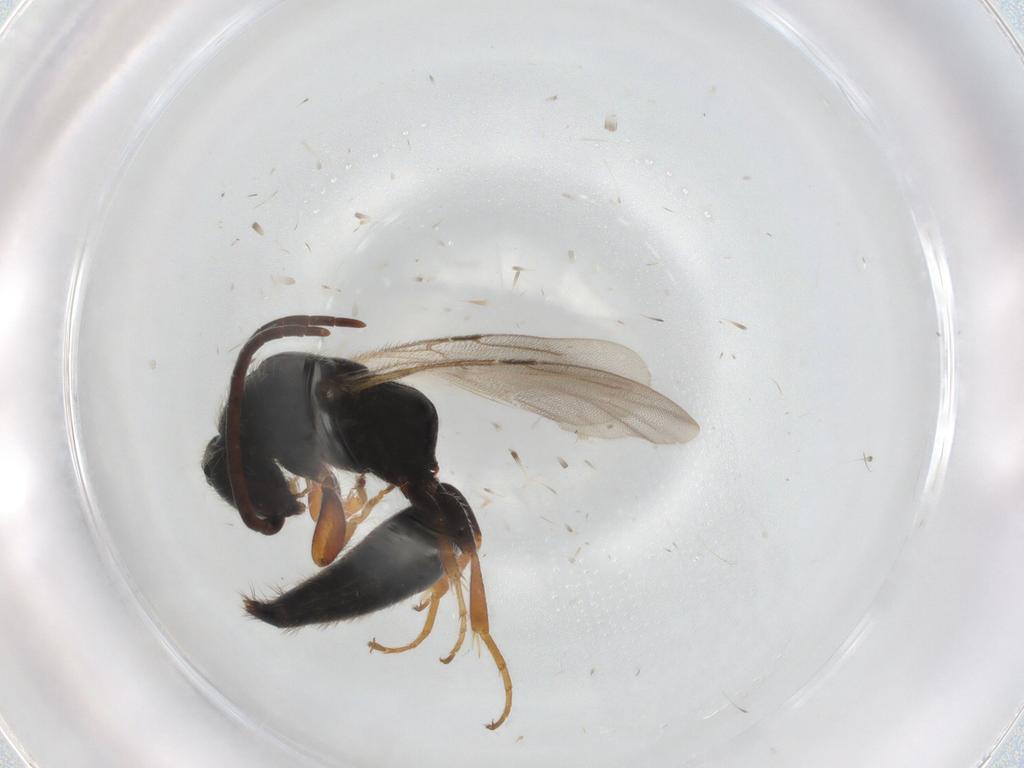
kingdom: Animalia
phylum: Arthropoda
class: Insecta
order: Hymenoptera
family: Bethylidae
